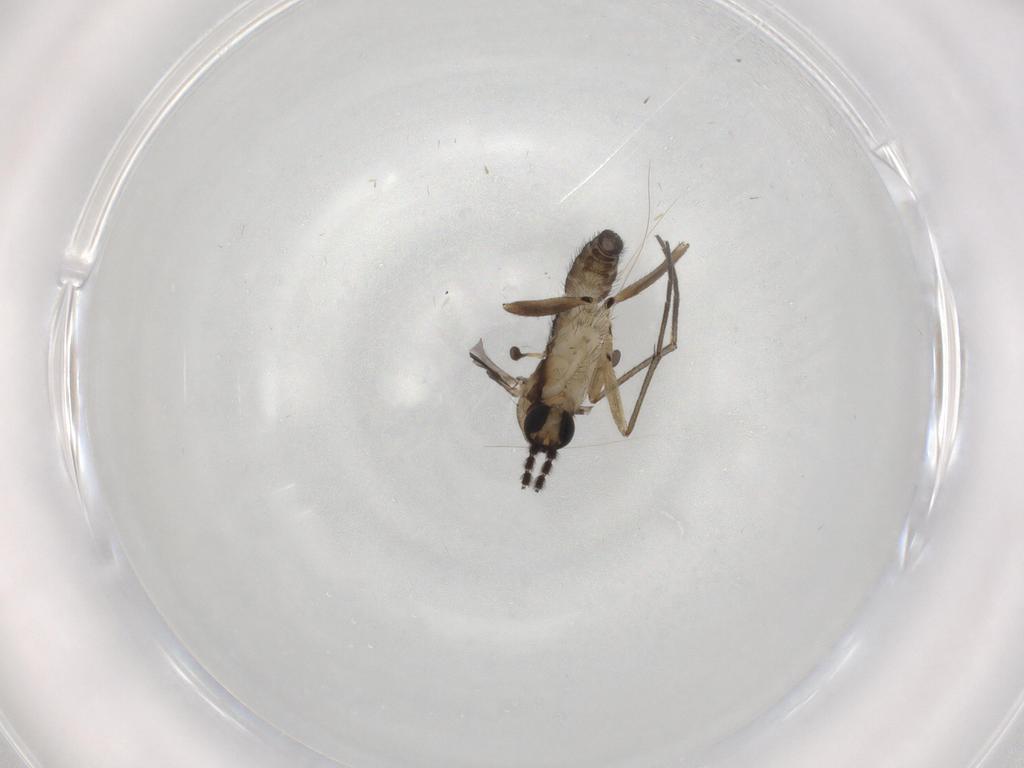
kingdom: Animalia
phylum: Arthropoda
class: Insecta
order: Diptera
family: Sciaridae
